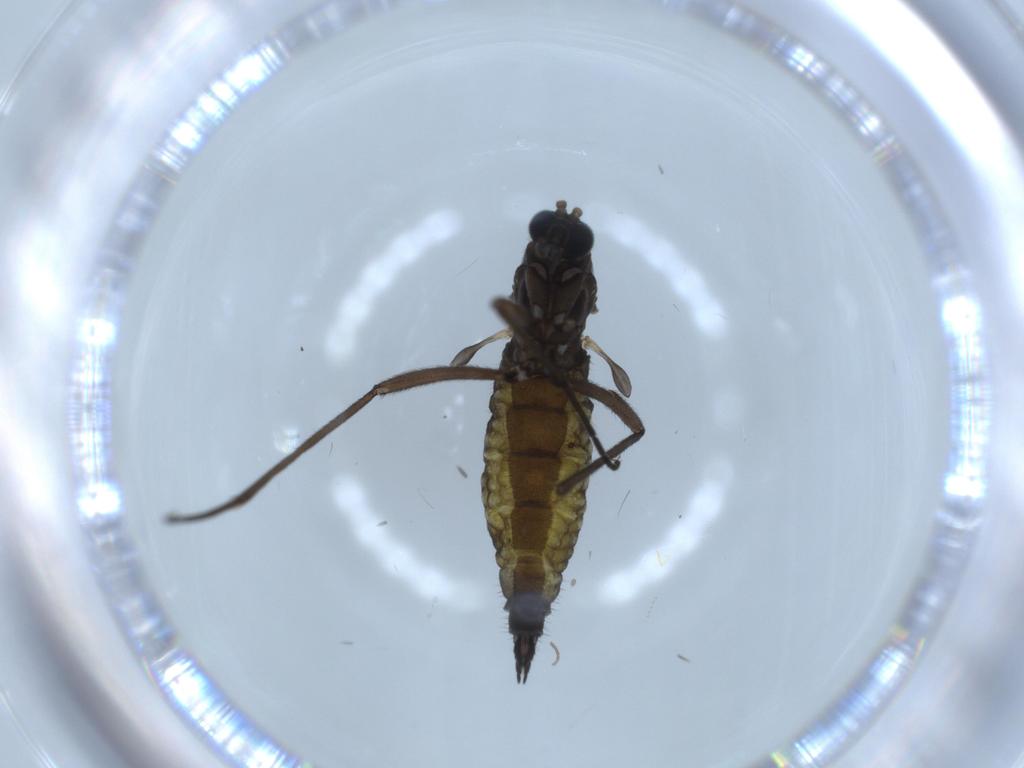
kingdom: Animalia
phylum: Arthropoda
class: Insecta
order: Diptera
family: Sciaridae
